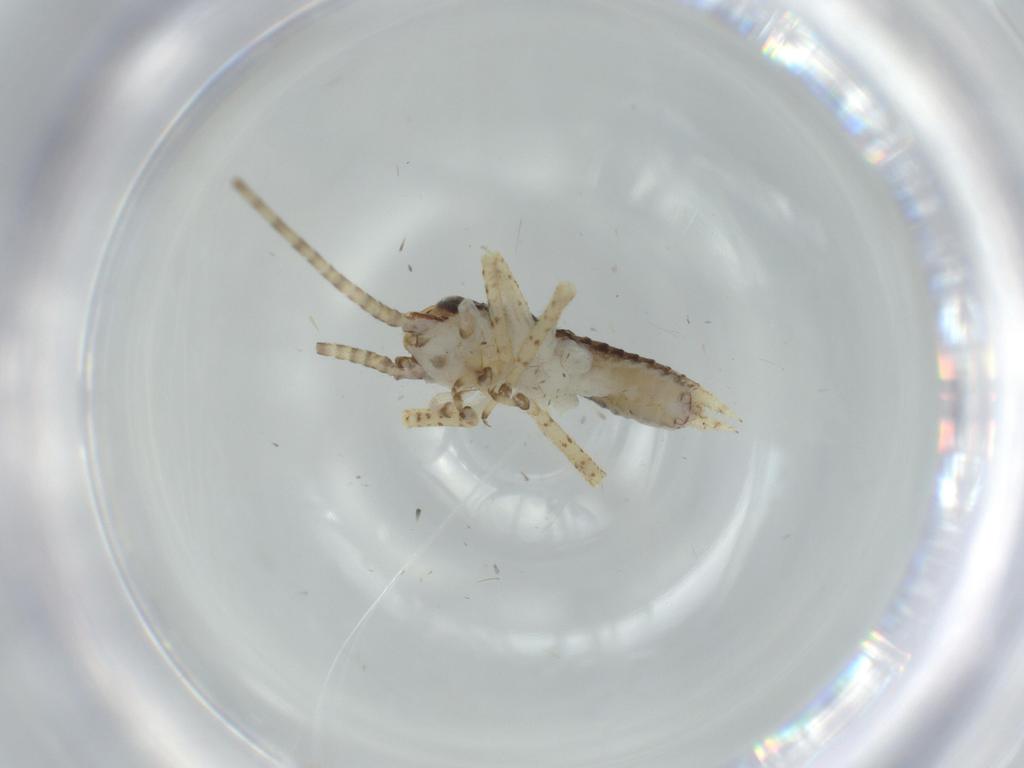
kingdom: Animalia
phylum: Arthropoda
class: Insecta
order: Orthoptera
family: Gryllidae
